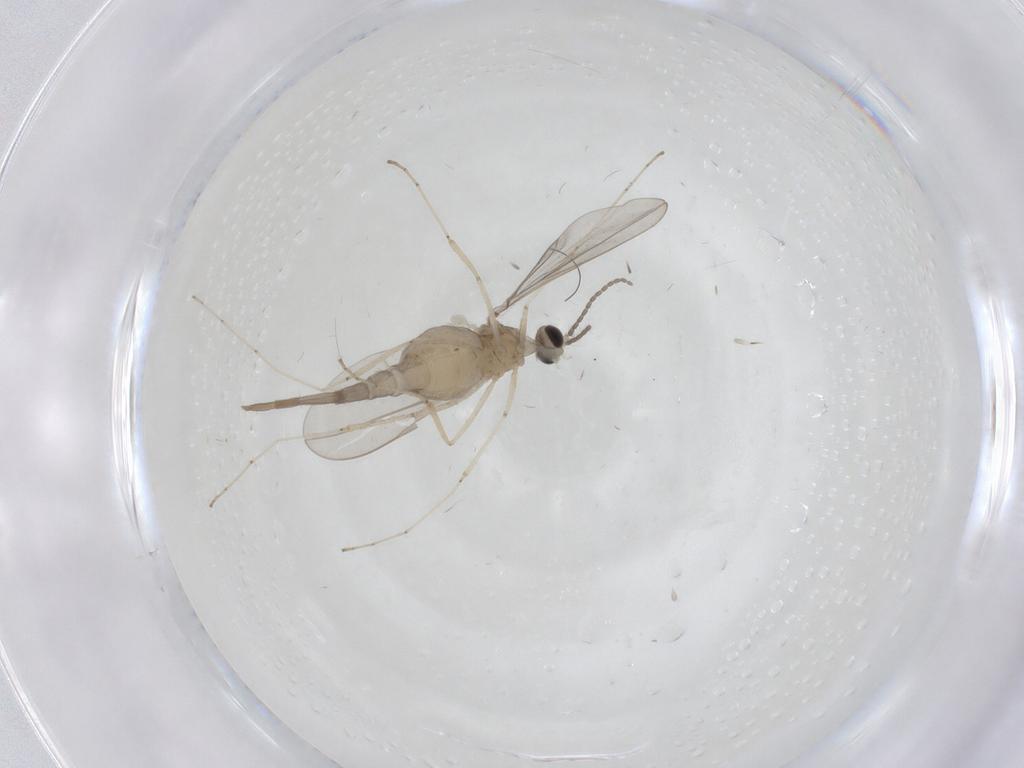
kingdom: Animalia
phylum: Arthropoda
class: Insecta
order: Diptera
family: Cecidomyiidae
